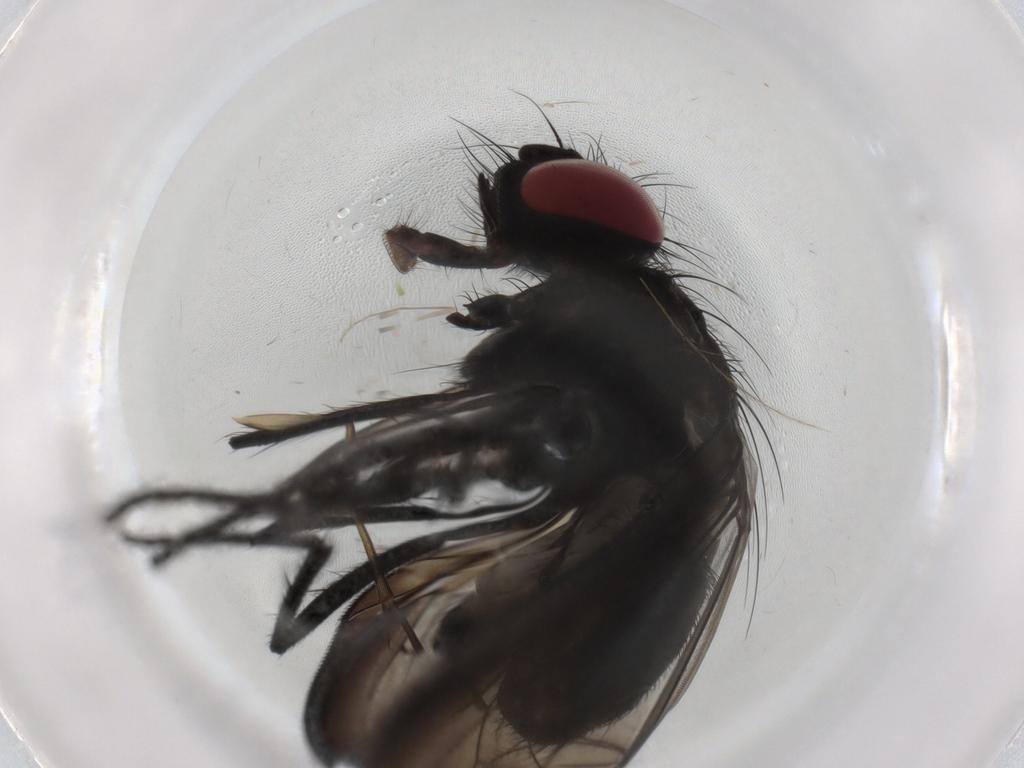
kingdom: Animalia
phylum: Arthropoda
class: Insecta
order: Diptera
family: Fannia
